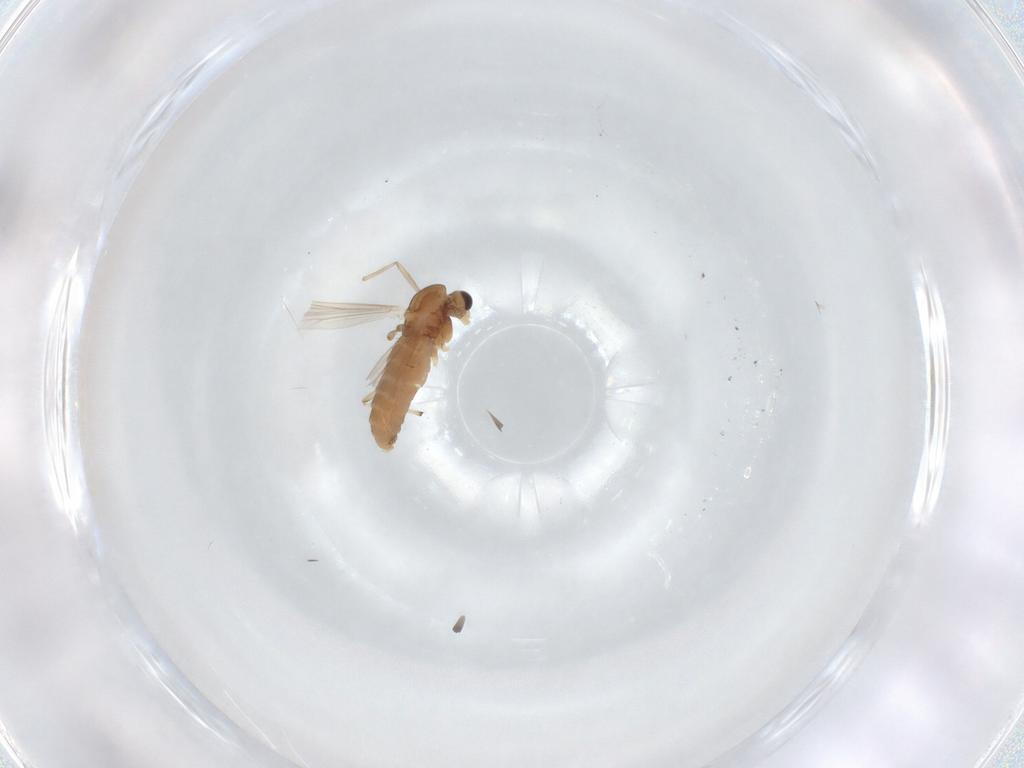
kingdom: Animalia
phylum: Arthropoda
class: Insecta
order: Diptera
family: Chironomidae
